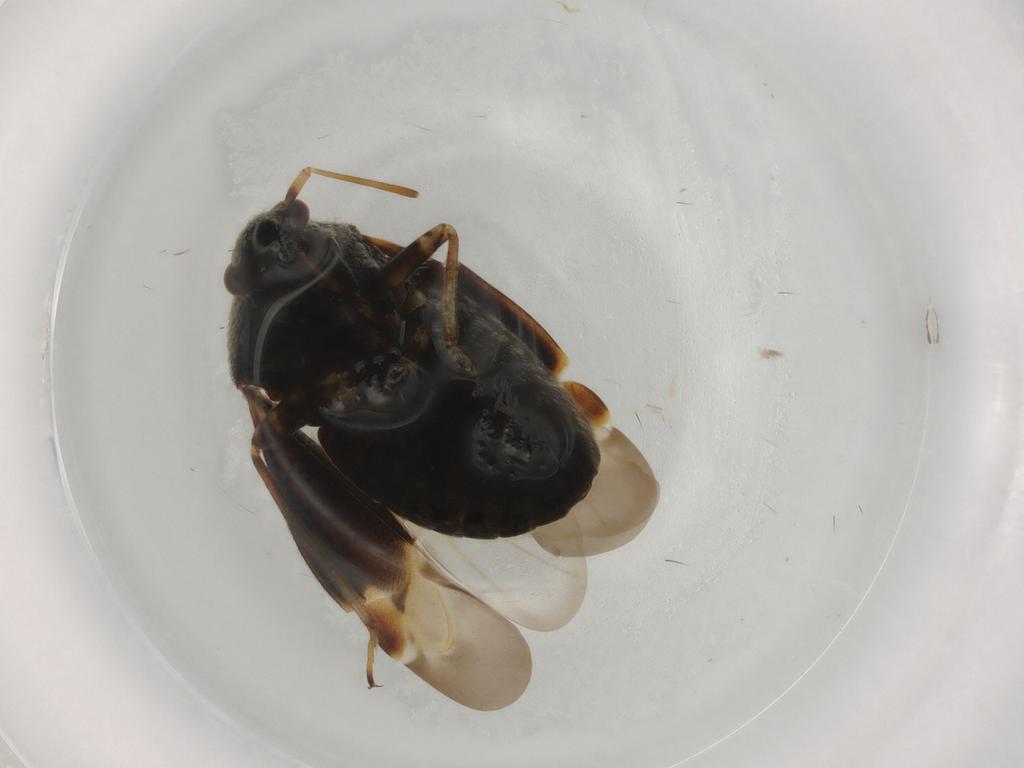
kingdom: Animalia
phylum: Arthropoda
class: Insecta
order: Hemiptera
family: Miridae
